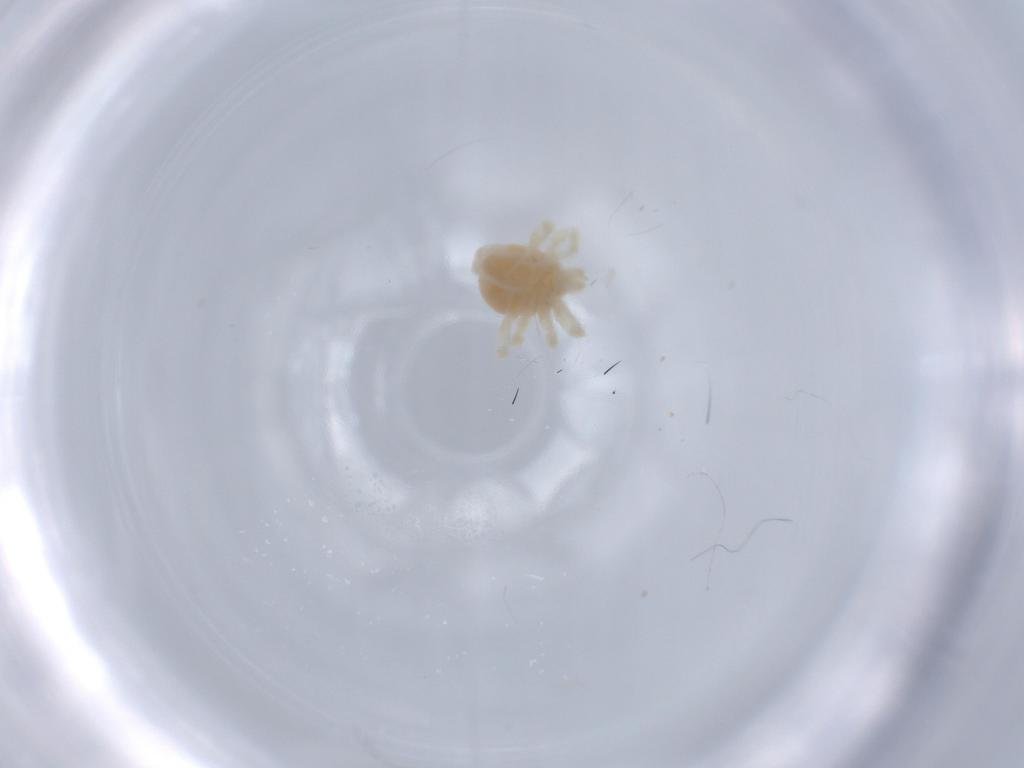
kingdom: Animalia
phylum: Arthropoda
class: Arachnida
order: Trombidiformes
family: Anystidae
